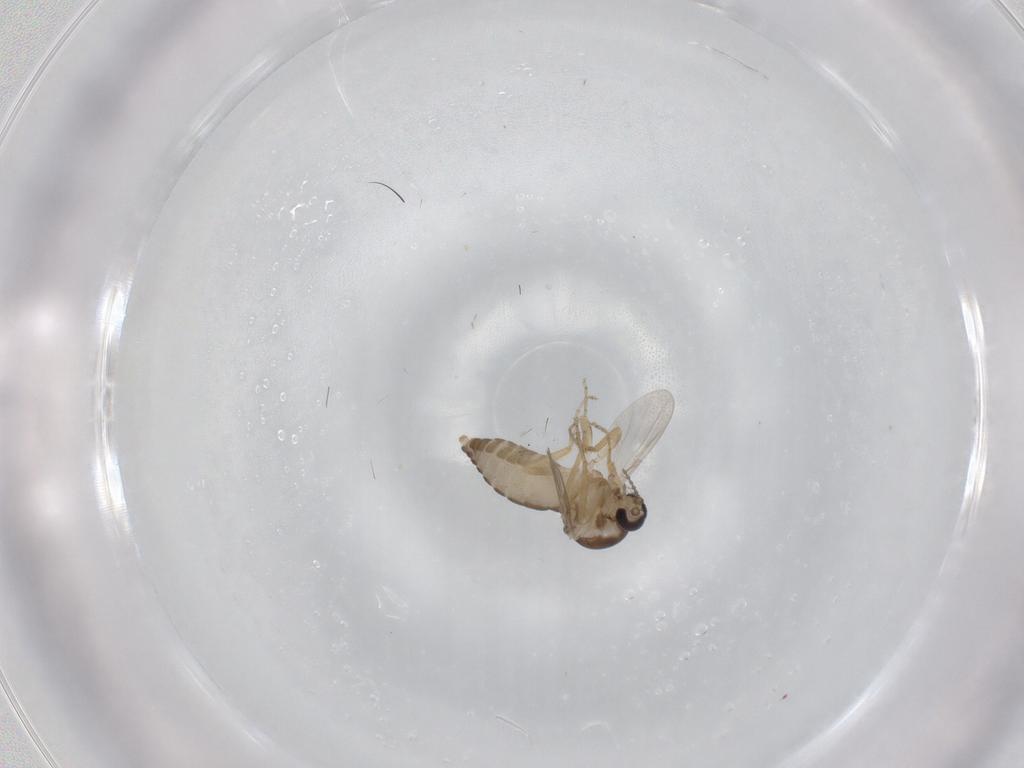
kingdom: Animalia
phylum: Arthropoda
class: Insecta
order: Diptera
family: Ceratopogonidae
